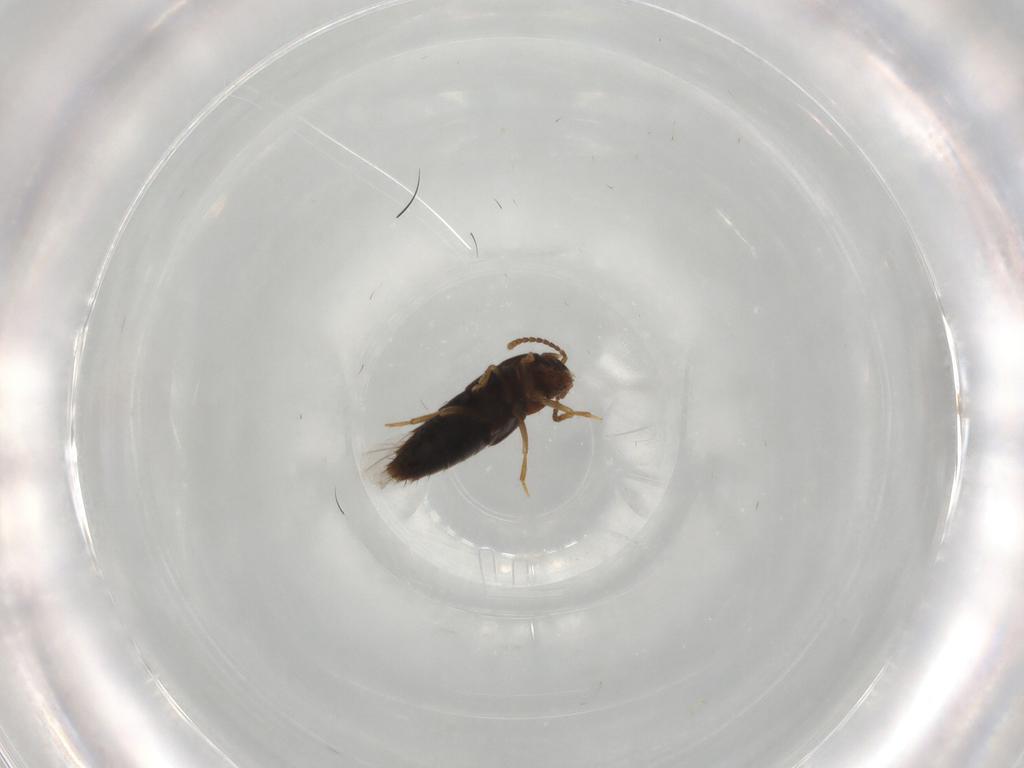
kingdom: Animalia
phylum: Arthropoda
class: Insecta
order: Coleoptera
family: Staphylinidae
